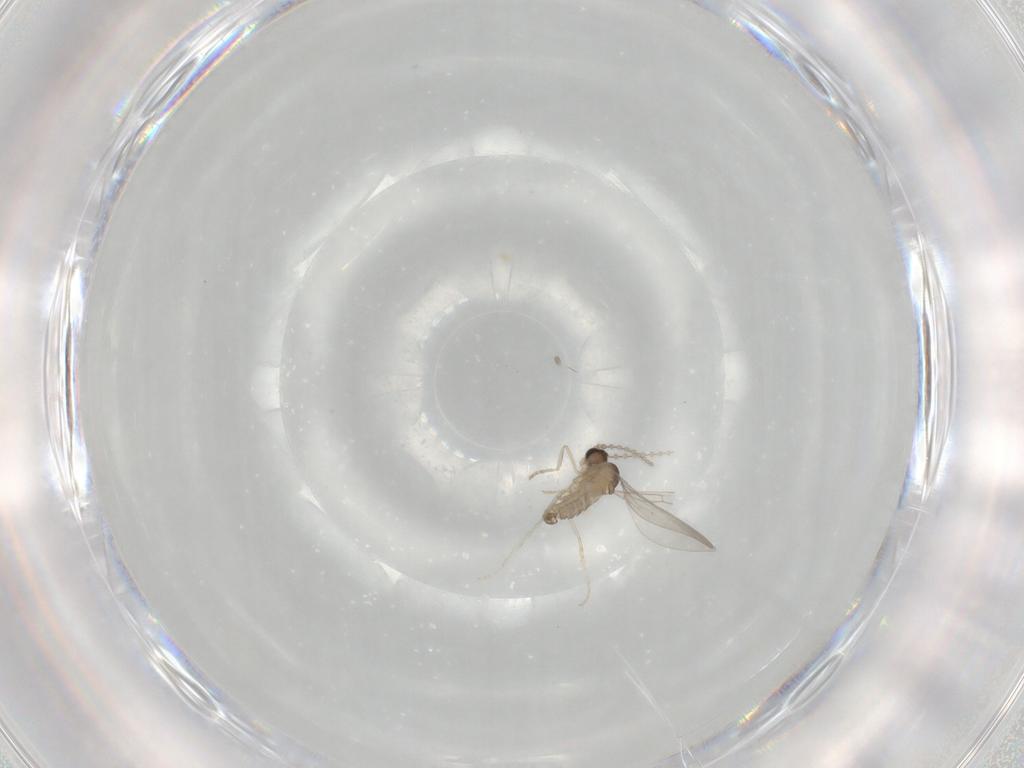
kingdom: Animalia
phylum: Arthropoda
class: Insecta
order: Diptera
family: Cecidomyiidae
